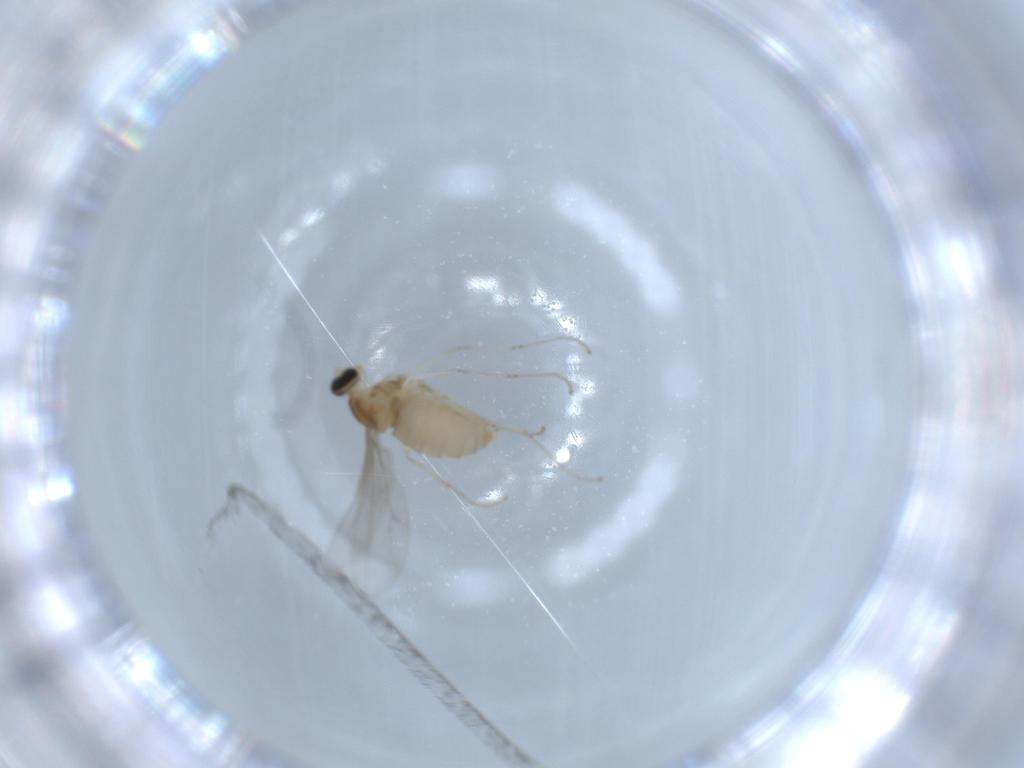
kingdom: Animalia
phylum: Arthropoda
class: Insecta
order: Diptera
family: Cecidomyiidae
